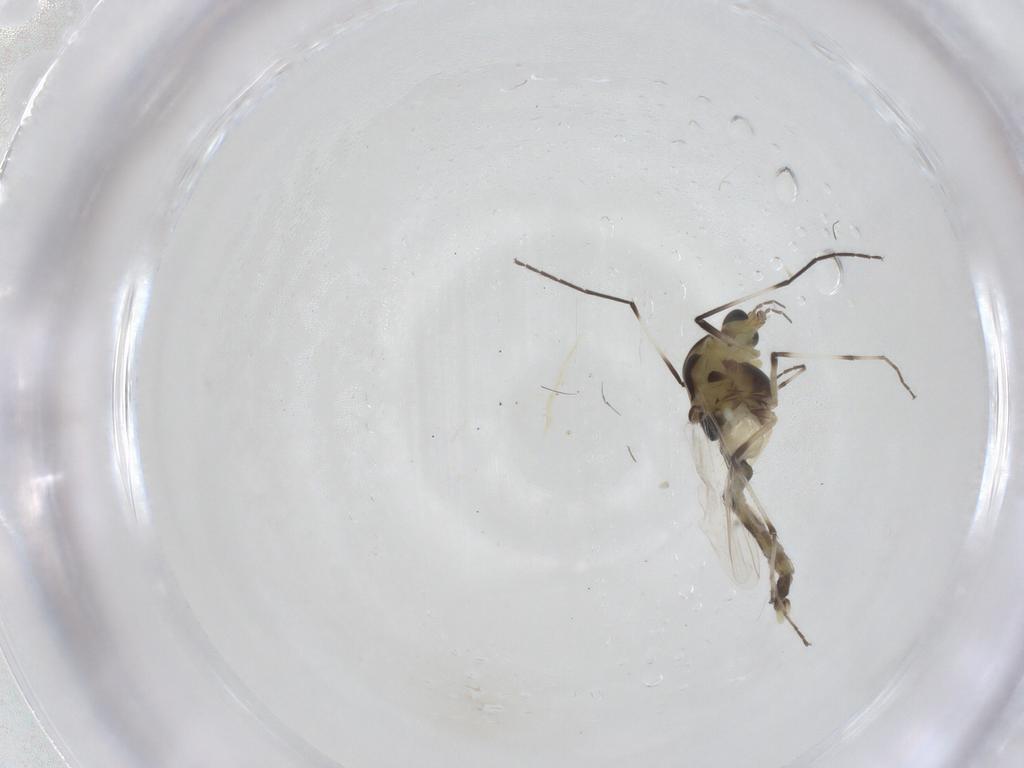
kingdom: Animalia
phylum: Arthropoda
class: Insecta
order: Diptera
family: Chironomidae
